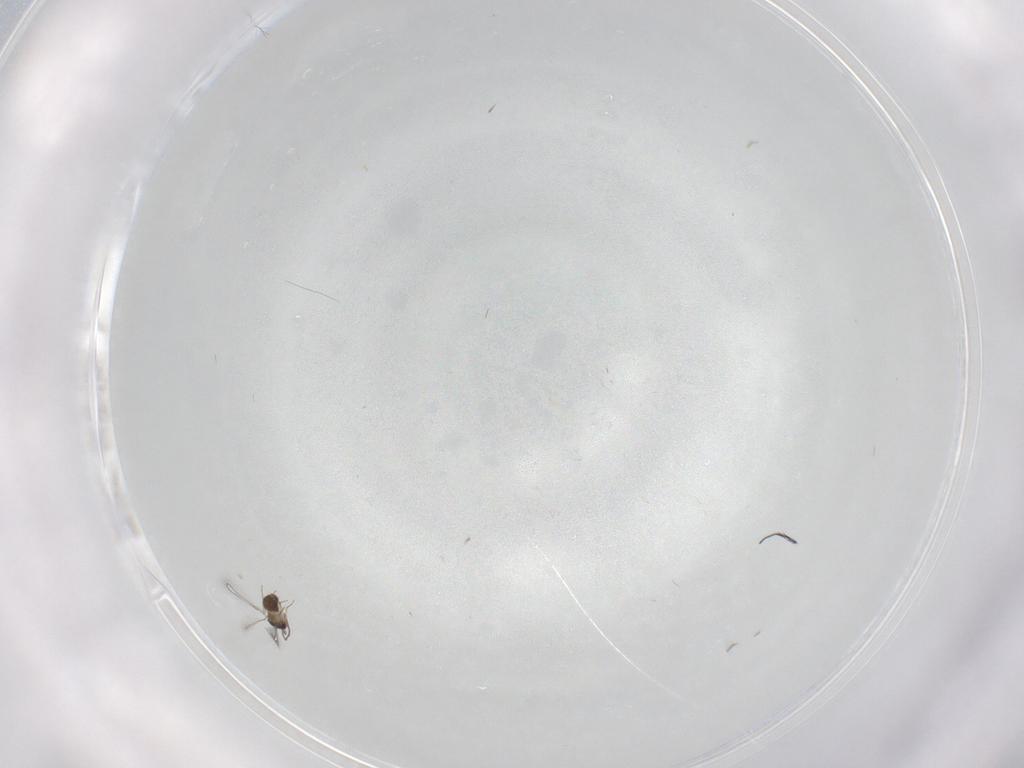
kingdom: Animalia
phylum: Arthropoda
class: Insecta
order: Hymenoptera
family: Mymaridae
